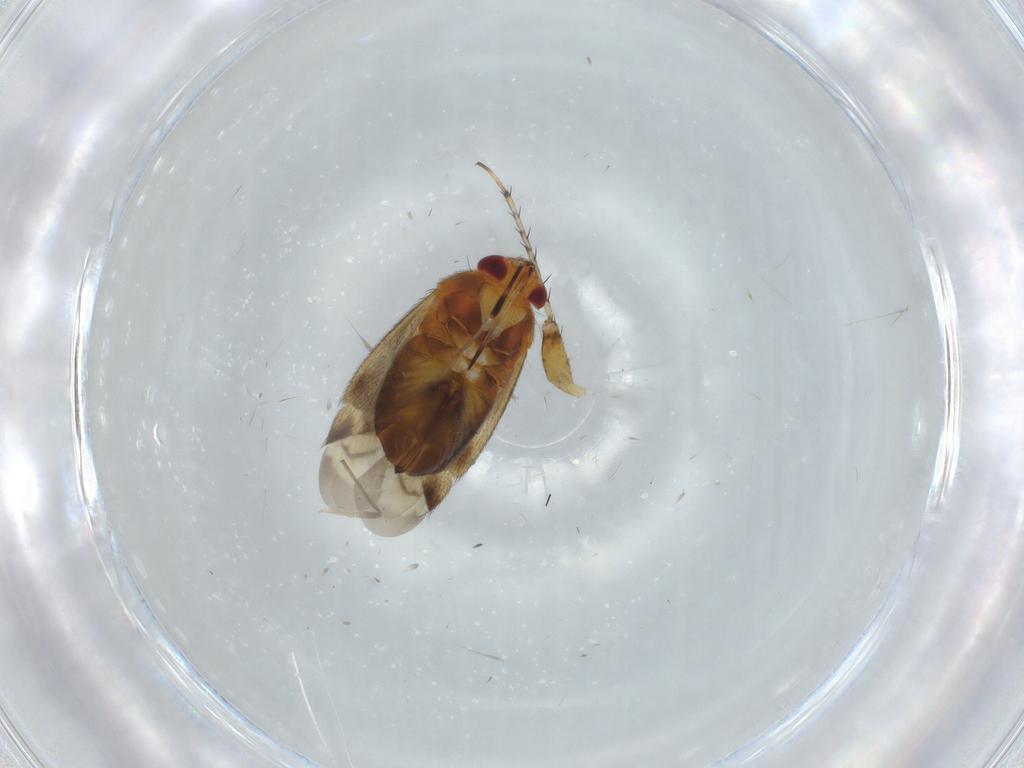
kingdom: Animalia
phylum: Arthropoda
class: Insecta
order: Hemiptera
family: Miridae
